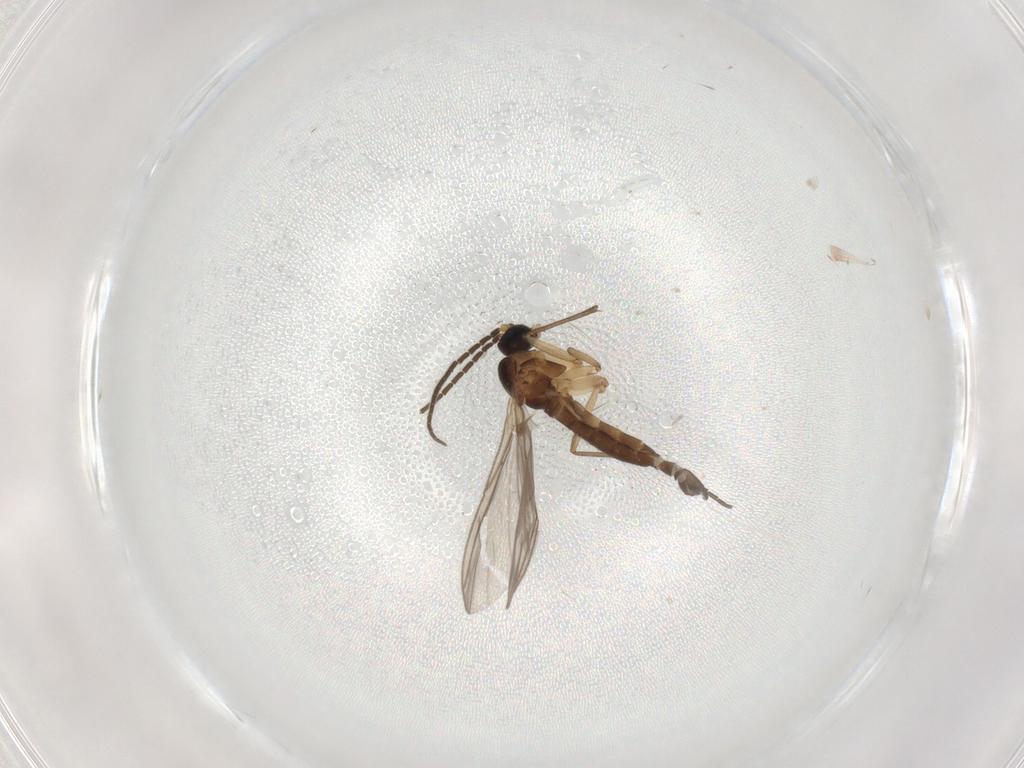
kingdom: Animalia
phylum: Arthropoda
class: Insecta
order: Diptera
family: Sciaridae
